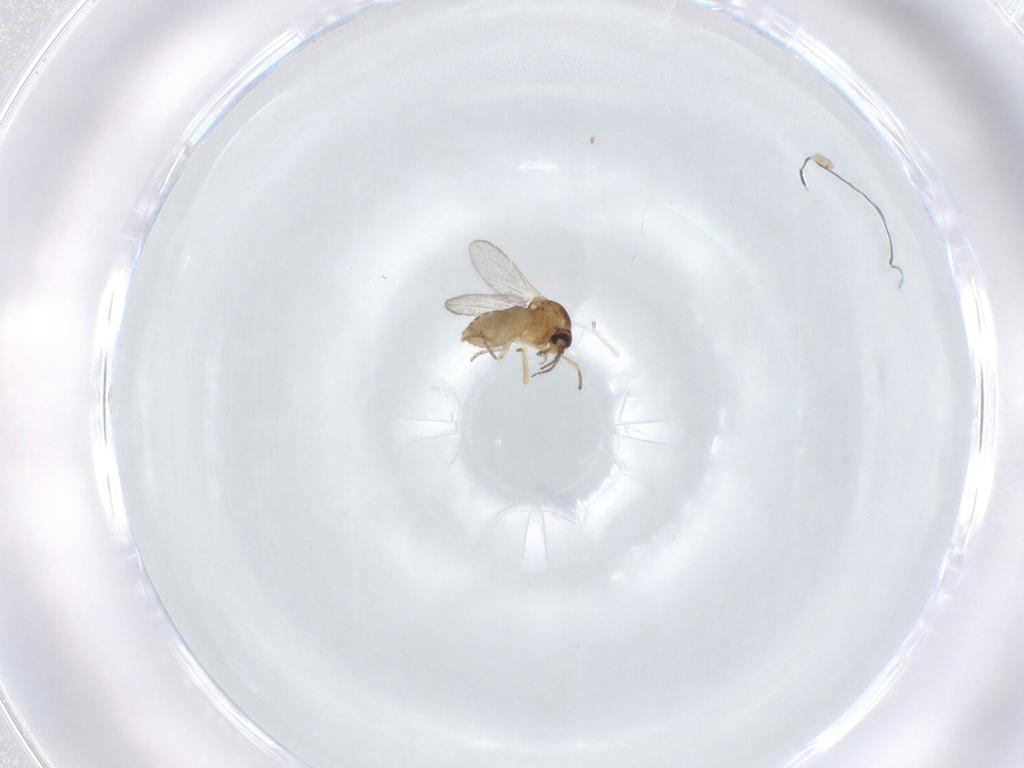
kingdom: Animalia
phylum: Arthropoda
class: Insecta
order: Diptera
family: Ceratopogonidae
